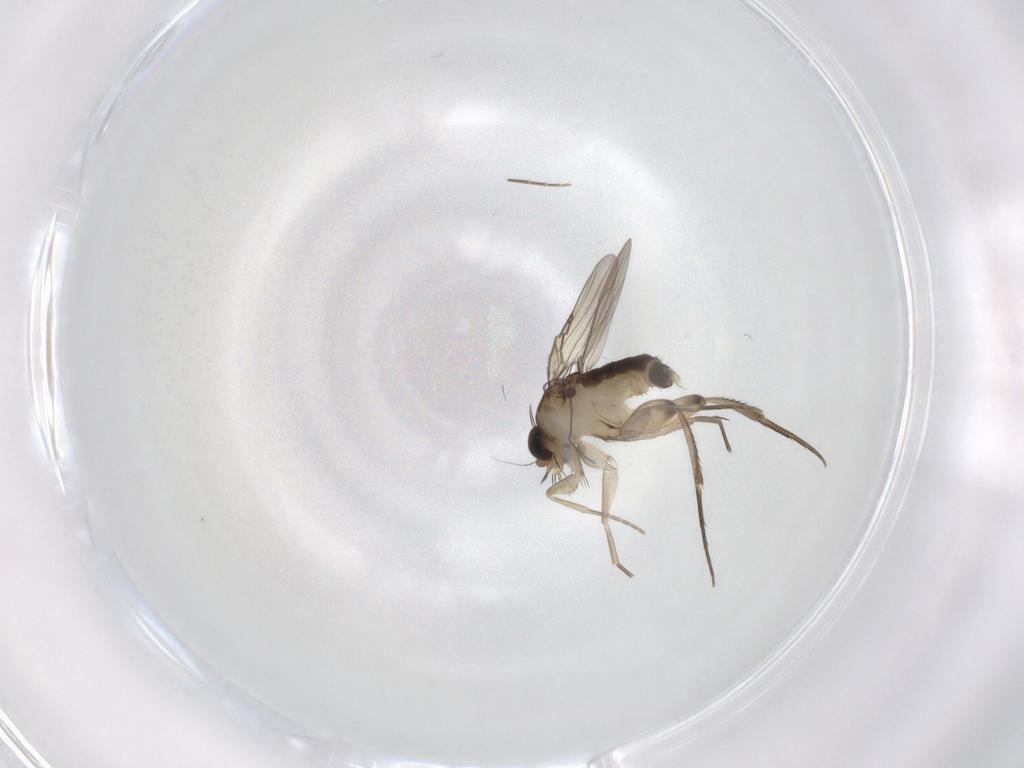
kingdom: Animalia
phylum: Arthropoda
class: Insecta
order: Diptera
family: Phoridae
